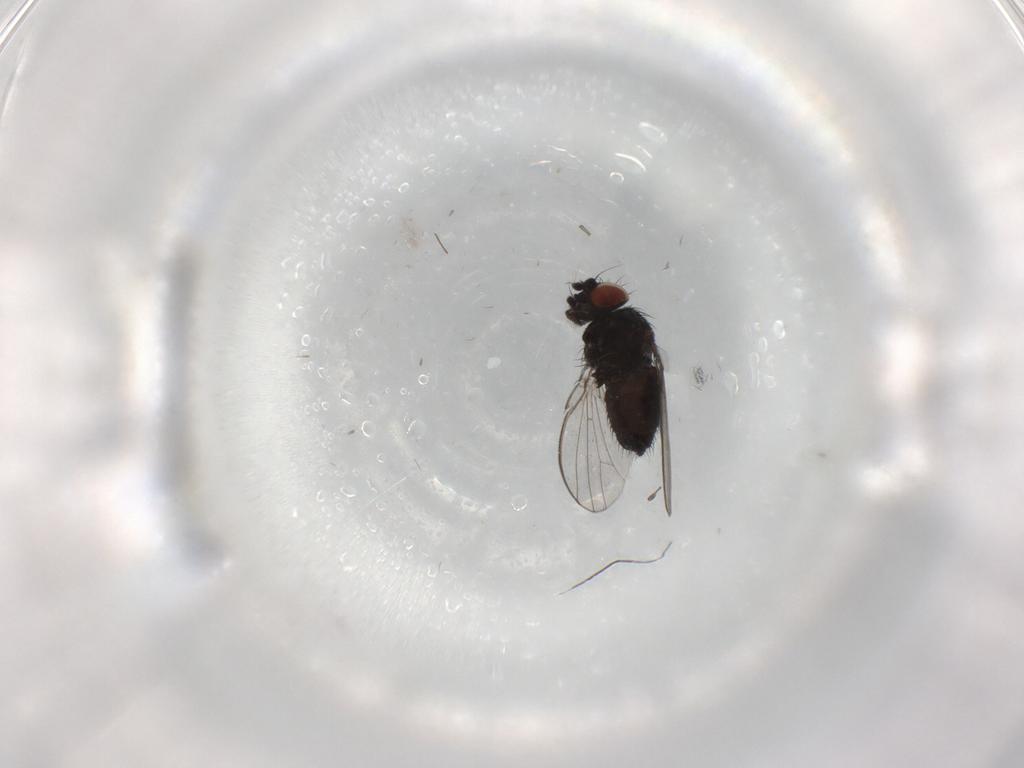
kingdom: Animalia
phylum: Arthropoda
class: Insecta
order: Diptera
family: Milichiidae
